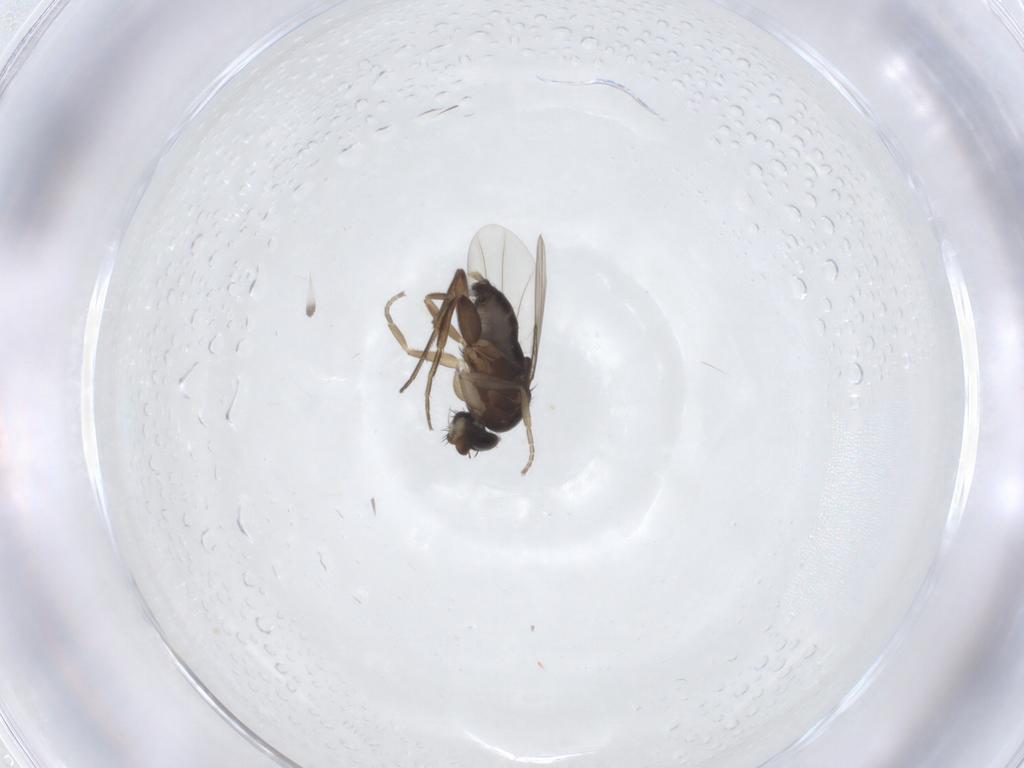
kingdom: Animalia
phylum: Arthropoda
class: Insecta
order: Diptera
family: Phoridae
